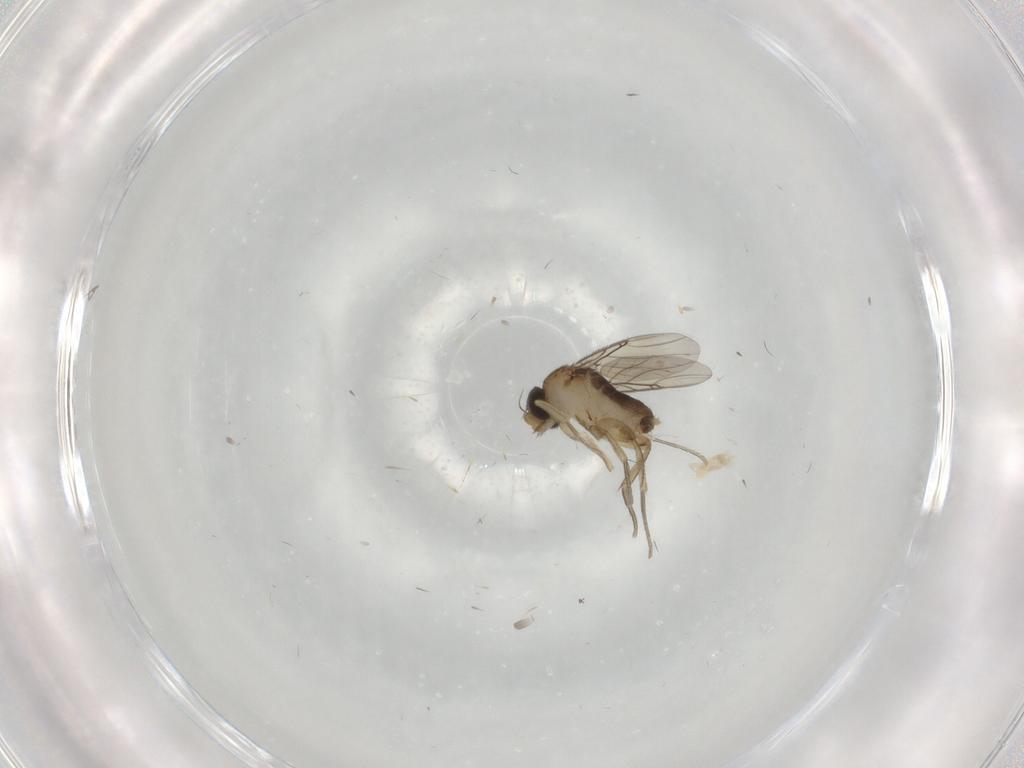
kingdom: Animalia
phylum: Arthropoda
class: Insecta
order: Diptera
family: Phoridae
